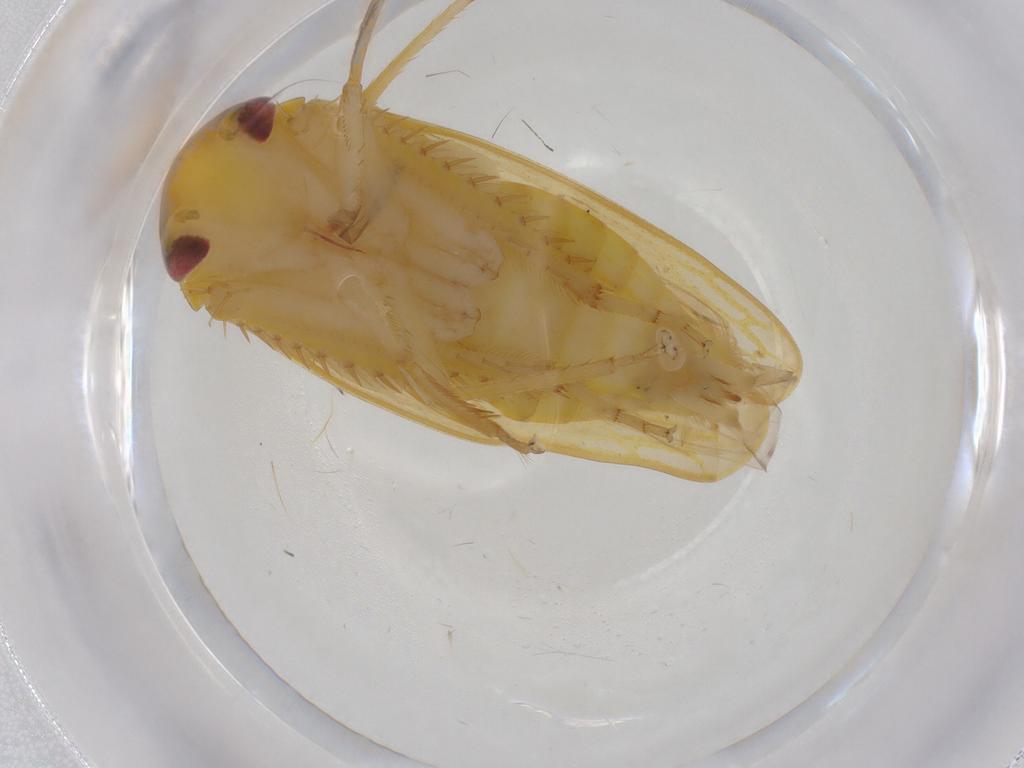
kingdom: Animalia
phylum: Arthropoda
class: Insecta
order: Hemiptera
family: Cicadellidae
